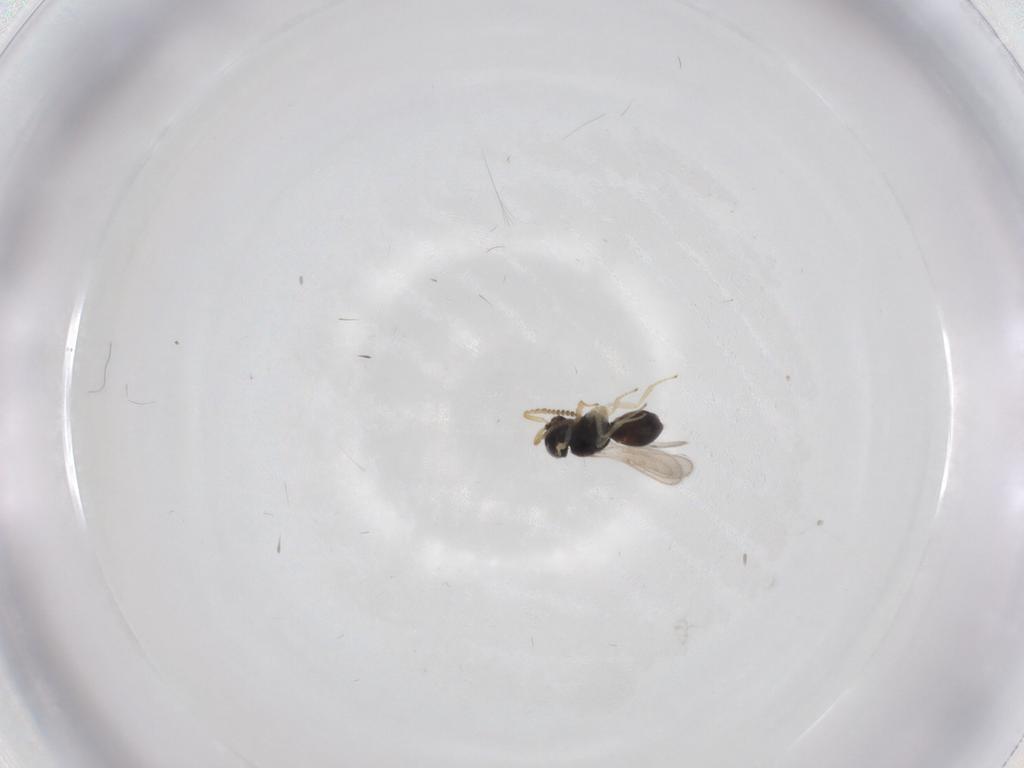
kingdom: Animalia
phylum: Arthropoda
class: Insecta
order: Hymenoptera
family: Scelionidae
